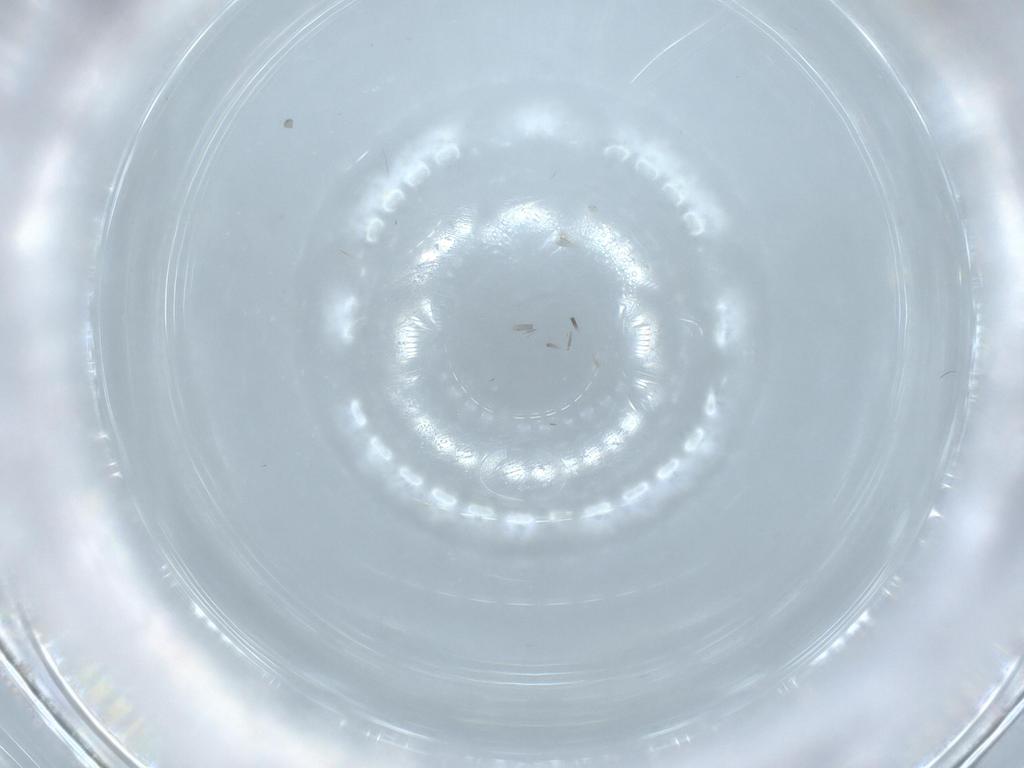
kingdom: Animalia
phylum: Arthropoda
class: Insecta
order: Diptera
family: Pipunculidae
